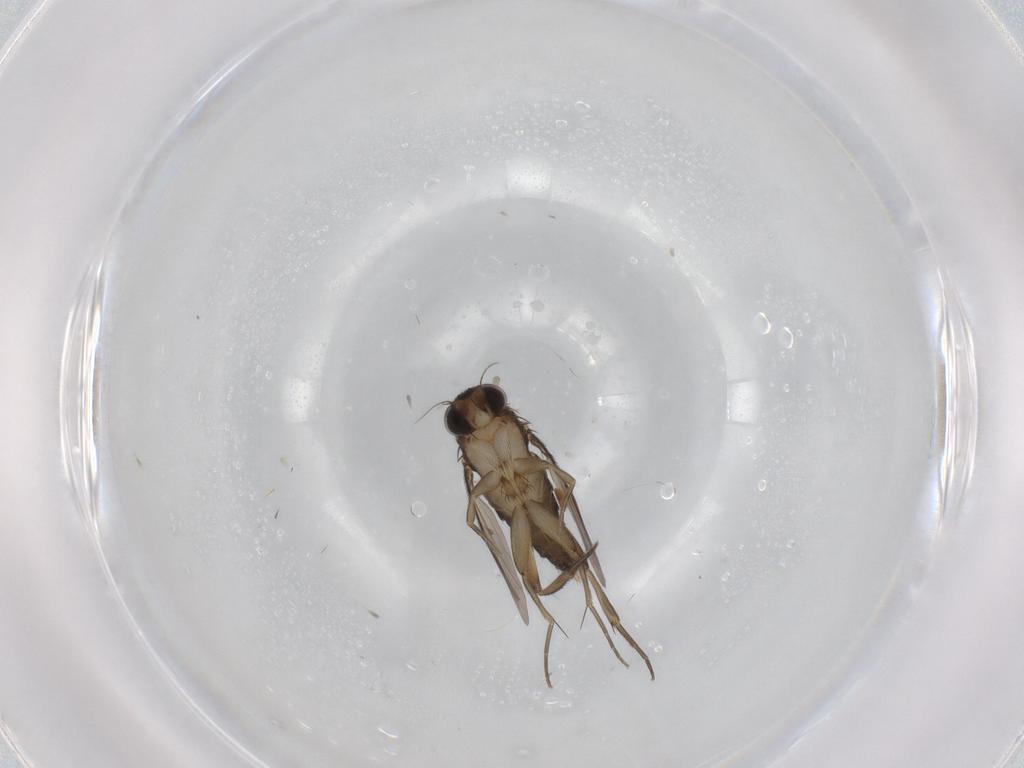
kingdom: Animalia
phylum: Arthropoda
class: Insecta
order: Diptera
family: Phoridae
